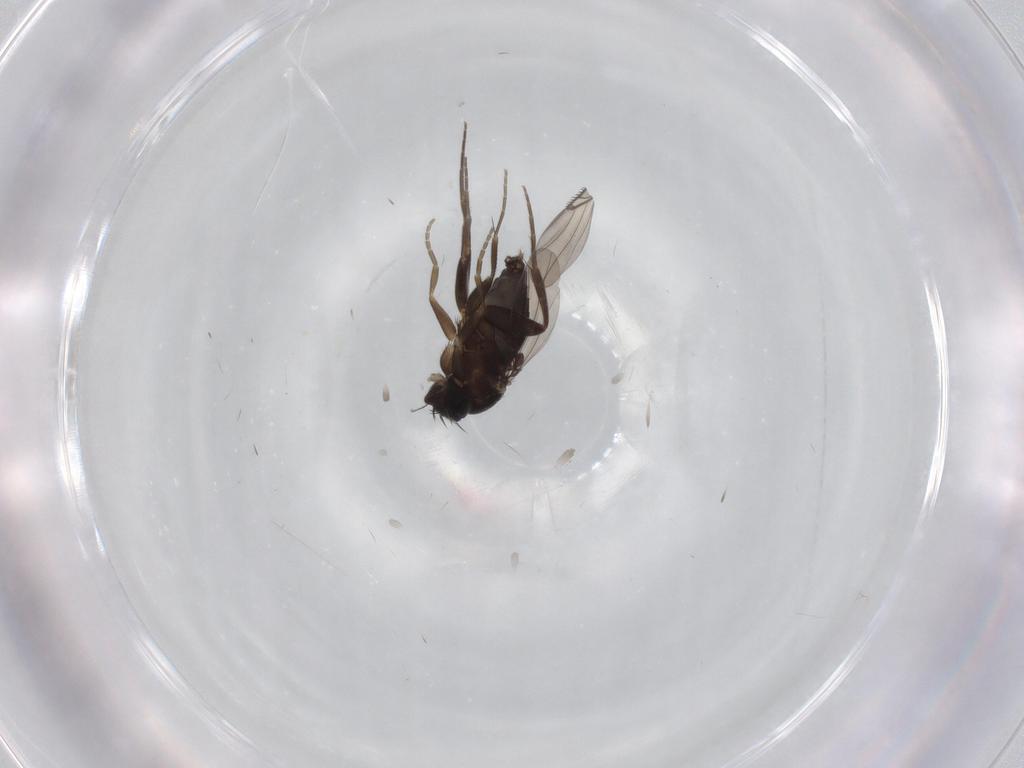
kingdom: Animalia
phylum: Arthropoda
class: Insecta
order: Diptera
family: Phoridae
